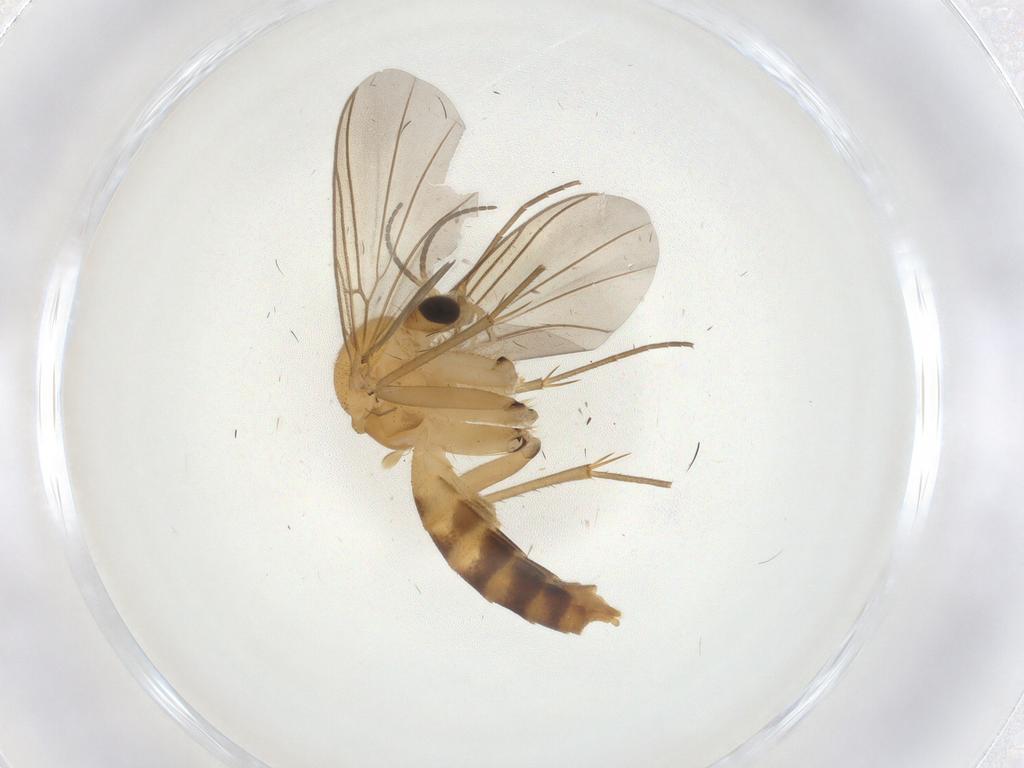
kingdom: Animalia
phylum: Arthropoda
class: Insecta
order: Diptera
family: Mycetophilidae
